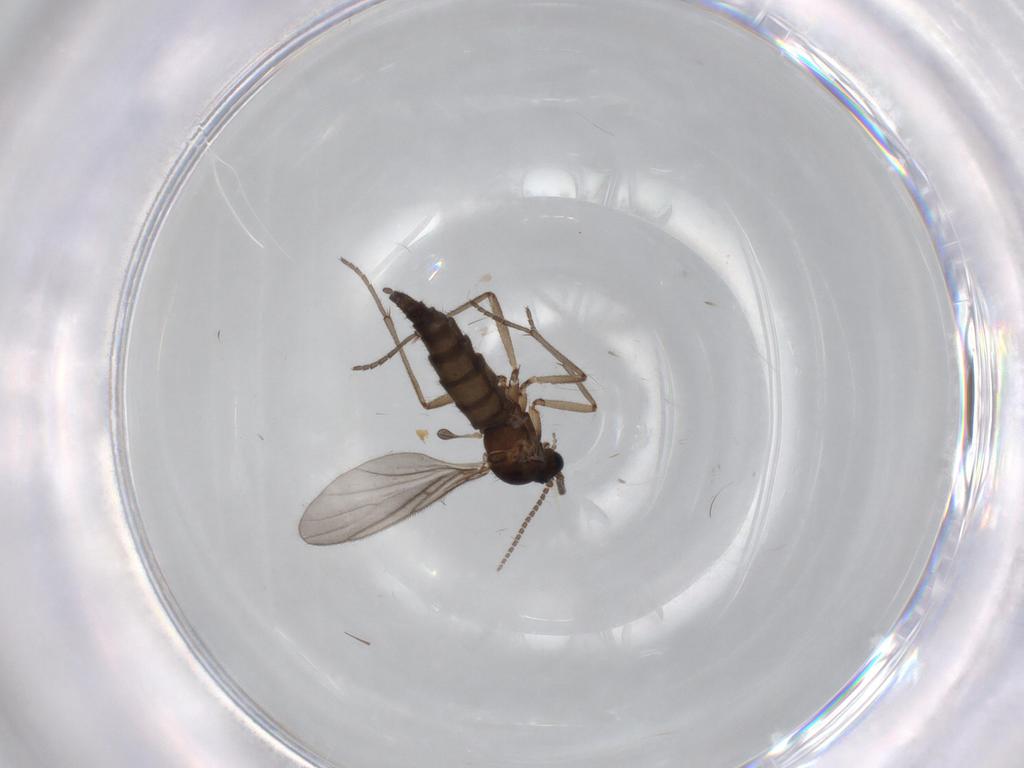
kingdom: Animalia
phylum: Arthropoda
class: Insecta
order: Diptera
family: Sciaridae
